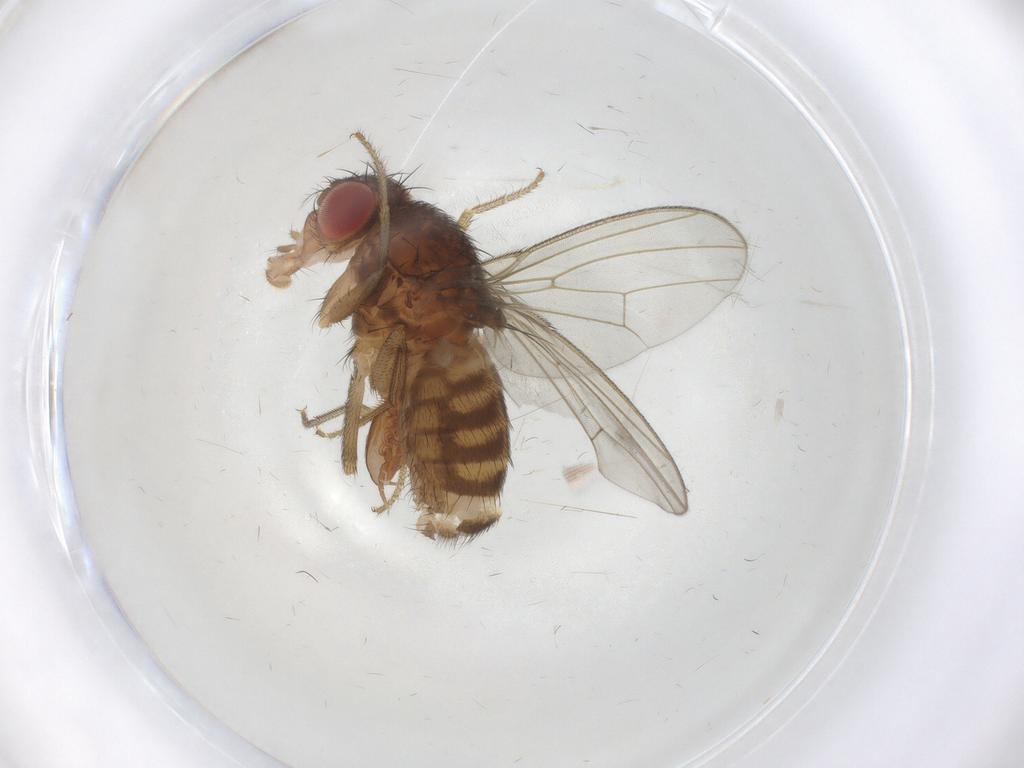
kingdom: Animalia
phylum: Arthropoda
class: Insecta
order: Diptera
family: Drosophilidae
